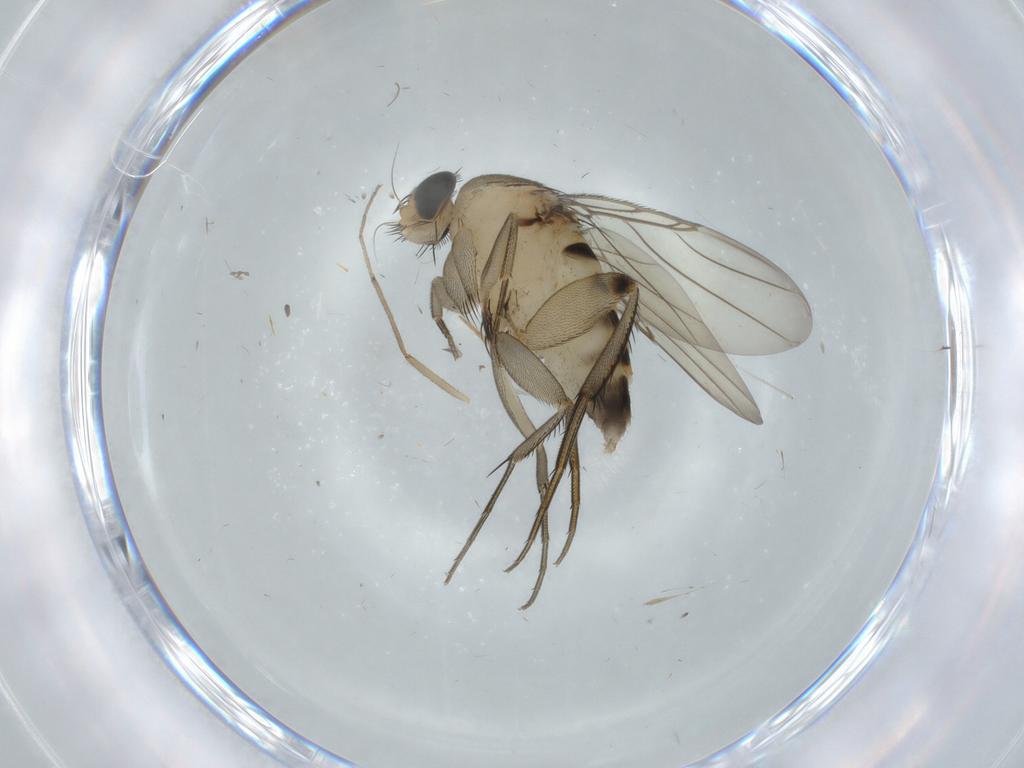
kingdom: Animalia
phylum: Arthropoda
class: Insecta
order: Diptera
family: Chironomidae
